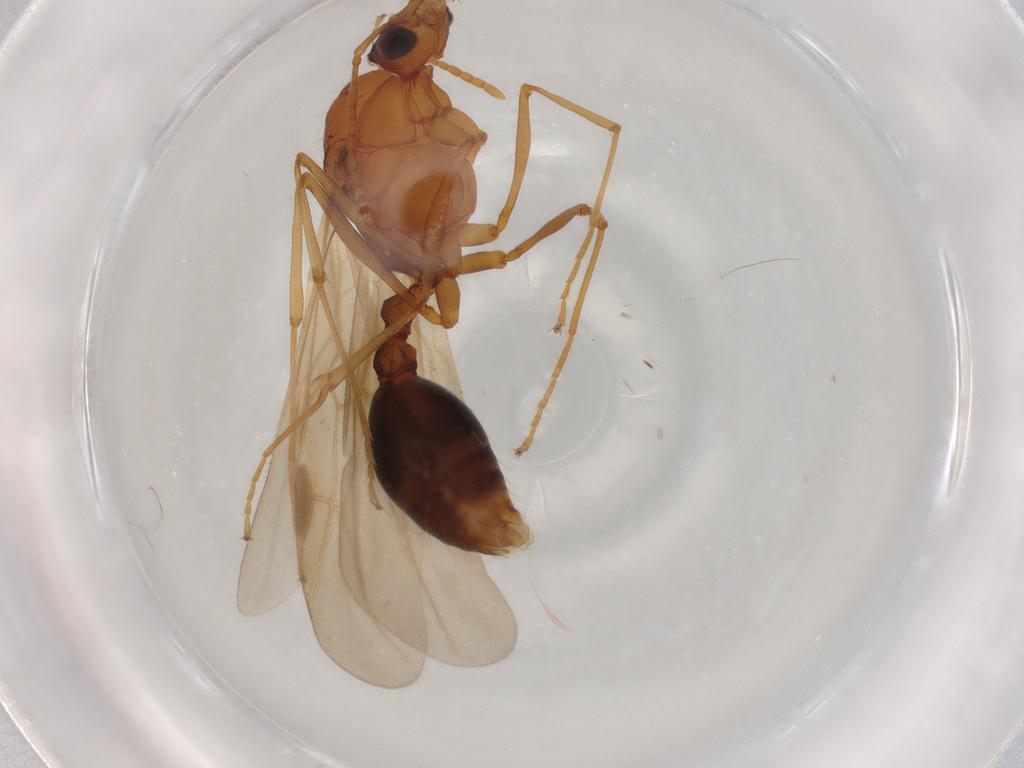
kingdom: Animalia
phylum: Arthropoda
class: Insecta
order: Hymenoptera
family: Formicidae
